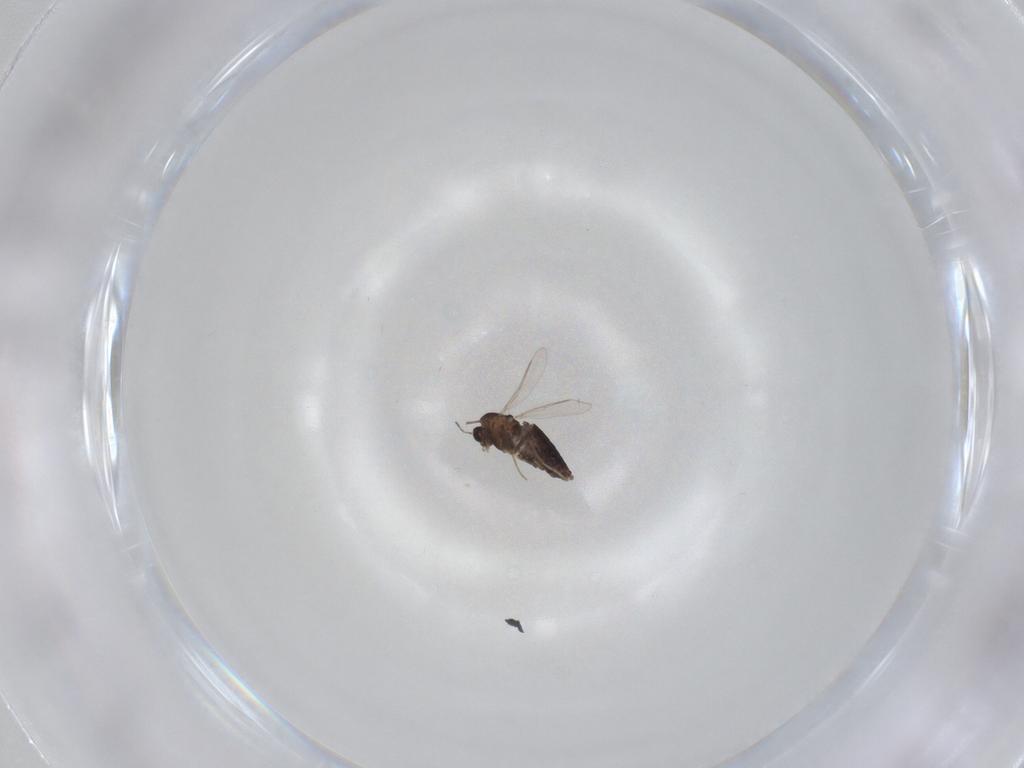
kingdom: Animalia
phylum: Arthropoda
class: Insecta
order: Diptera
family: Chironomidae
